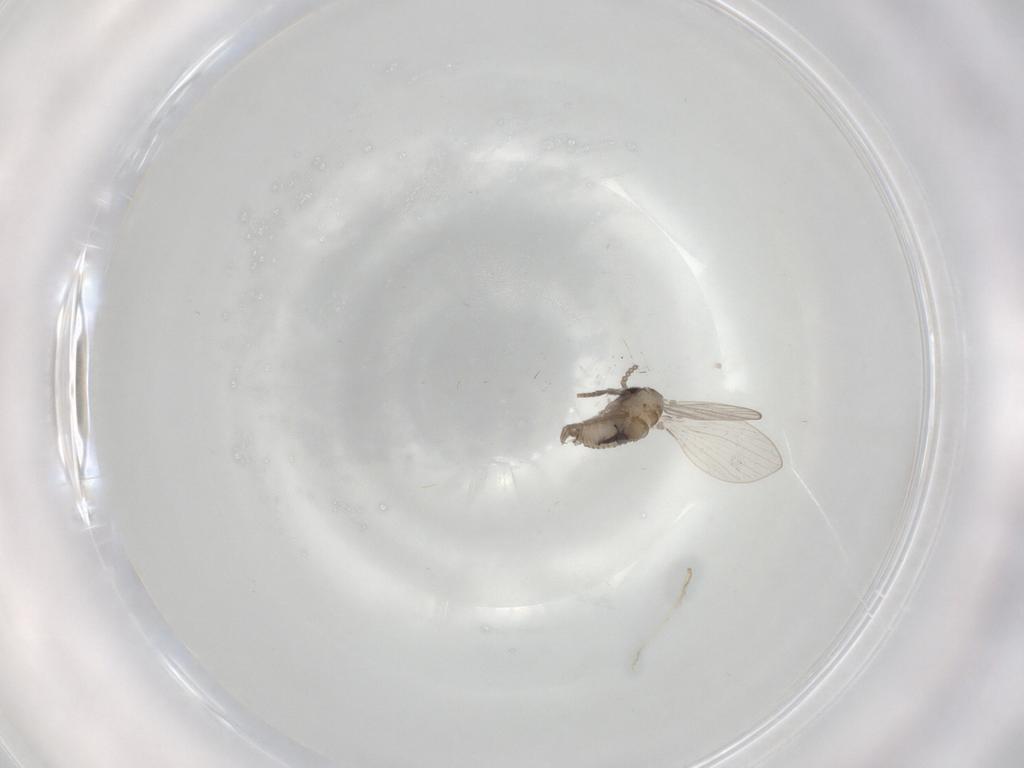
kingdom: Animalia
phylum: Arthropoda
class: Insecta
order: Diptera
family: Psychodidae
